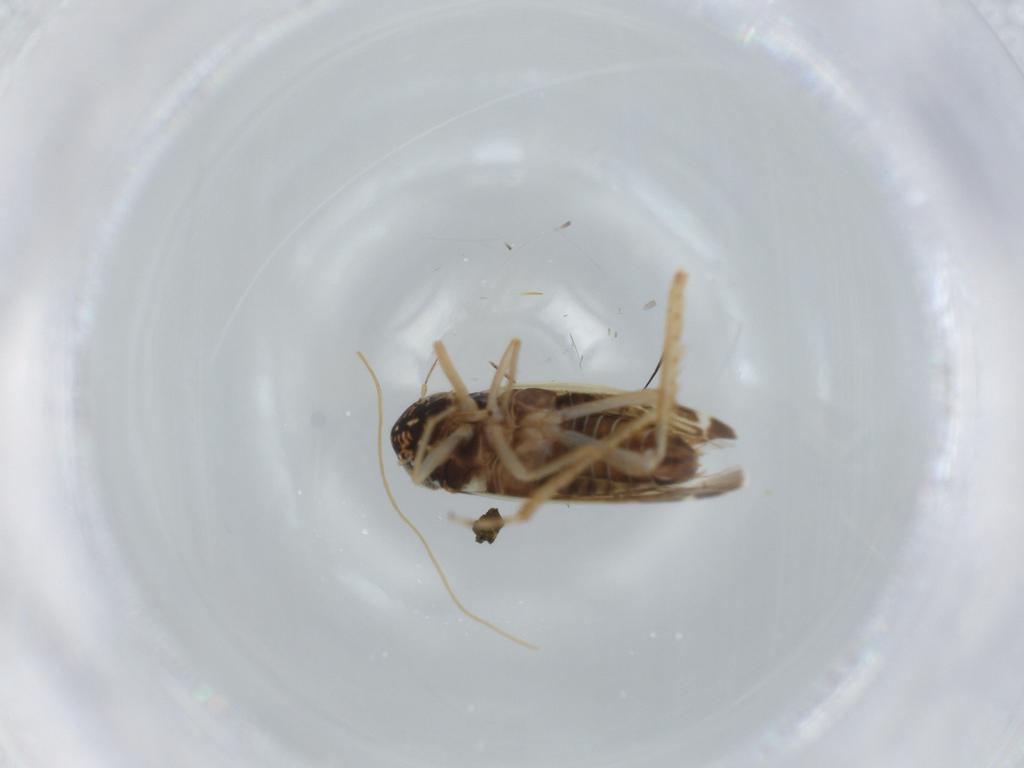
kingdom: Animalia
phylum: Arthropoda
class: Insecta
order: Hemiptera
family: Cicadellidae
